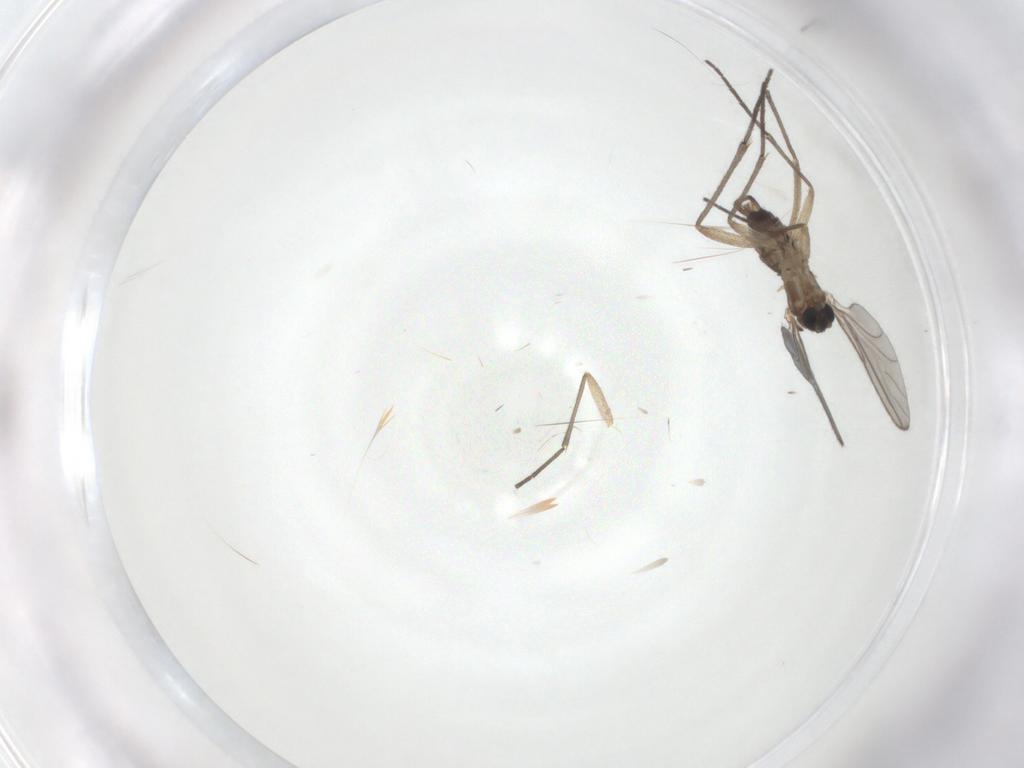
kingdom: Animalia
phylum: Arthropoda
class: Insecta
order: Diptera
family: Sciaridae
